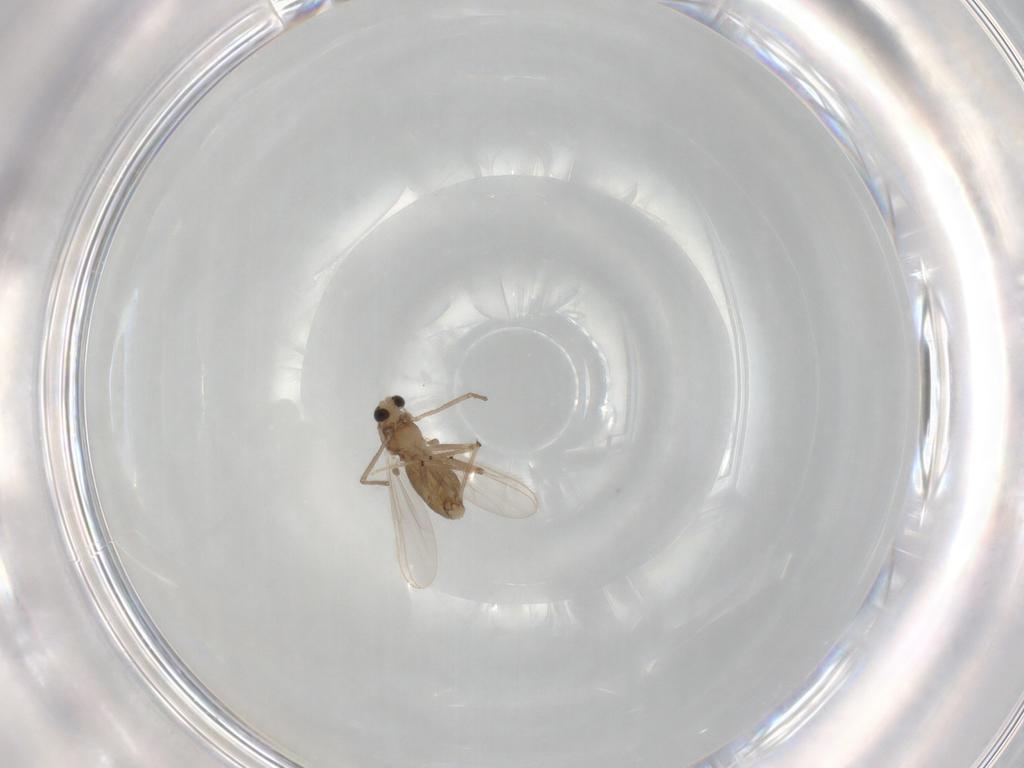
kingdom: Animalia
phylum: Arthropoda
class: Insecta
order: Diptera
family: Chironomidae
